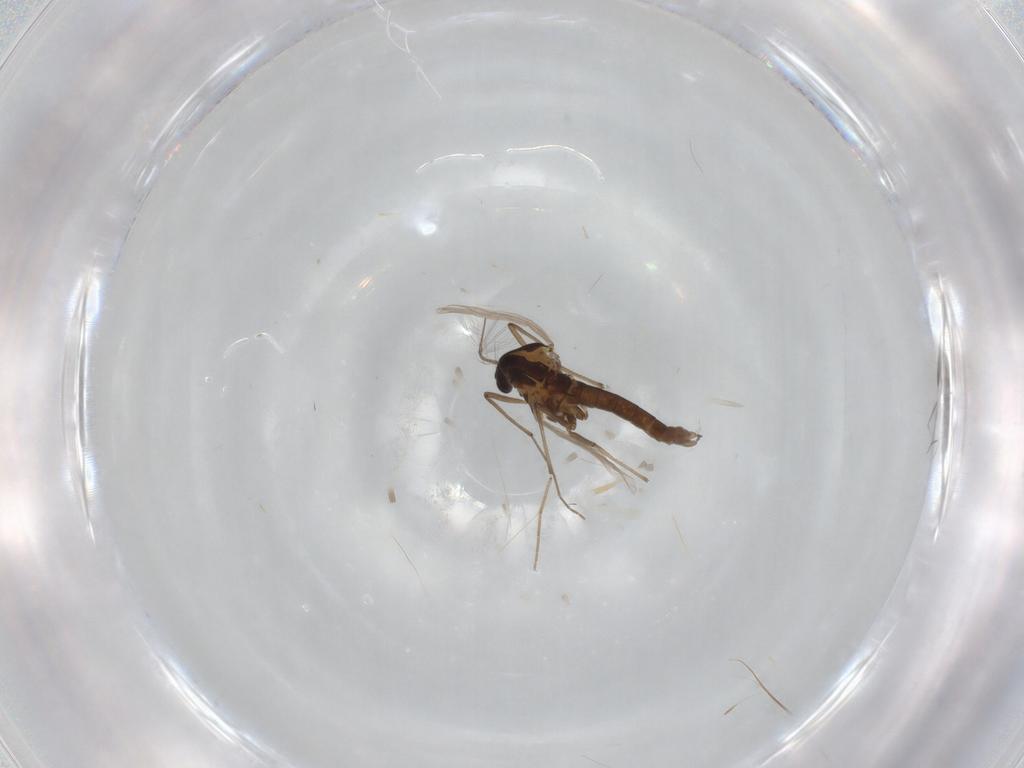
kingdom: Animalia
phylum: Arthropoda
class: Insecta
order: Diptera
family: Chironomidae
